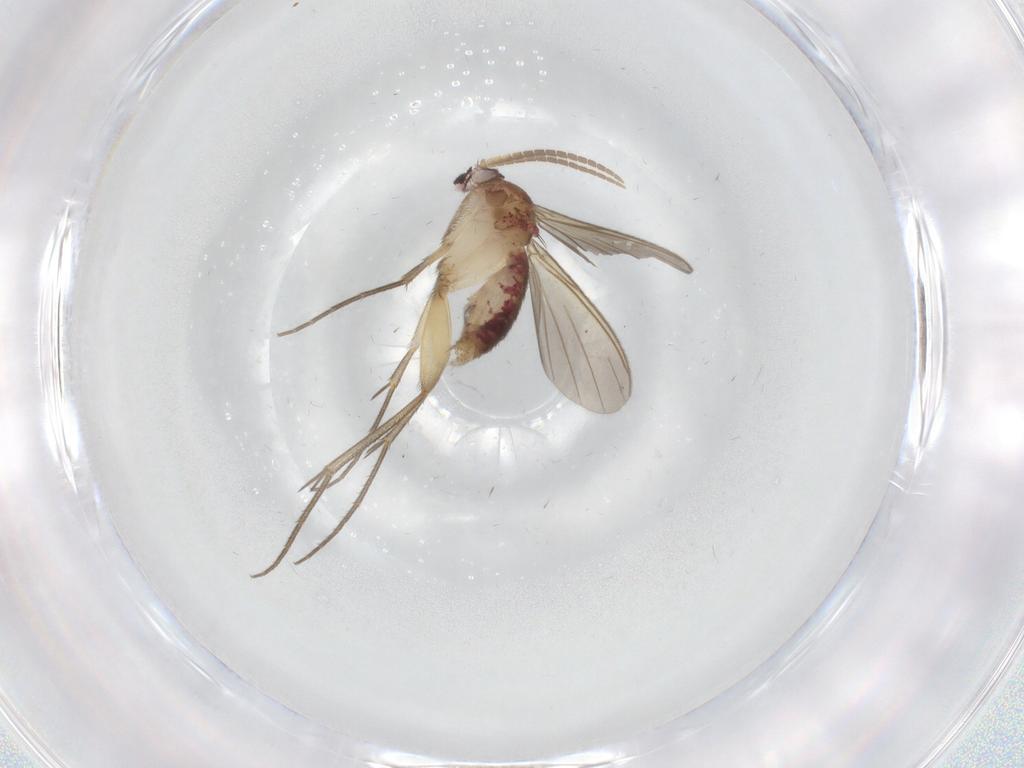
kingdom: Animalia
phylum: Arthropoda
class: Insecta
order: Diptera
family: Mycetophilidae
